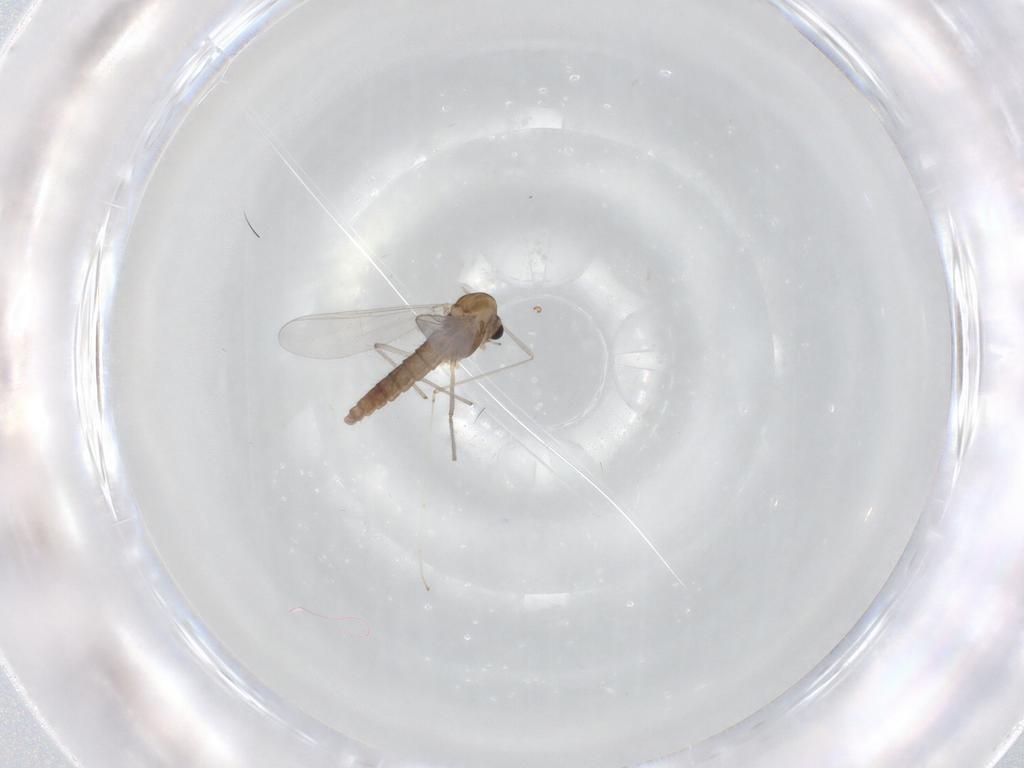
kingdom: Animalia
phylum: Arthropoda
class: Insecta
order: Diptera
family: Chironomidae
